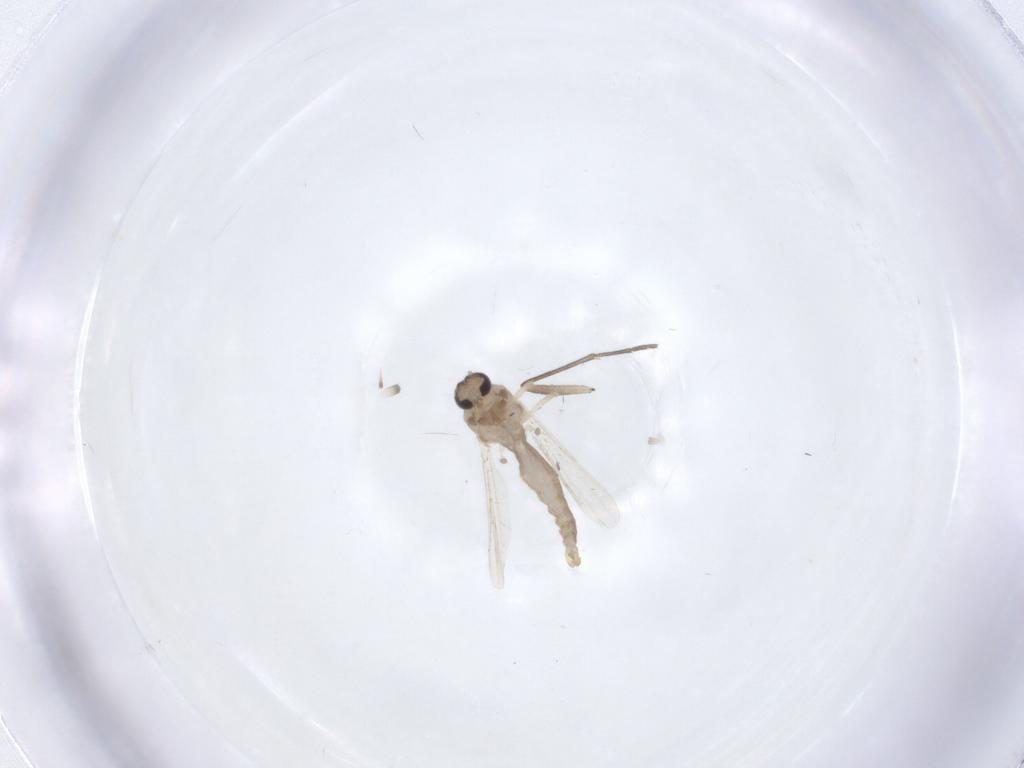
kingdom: Animalia
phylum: Arthropoda
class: Insecta
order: Diptera
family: Ceratopogonidae
